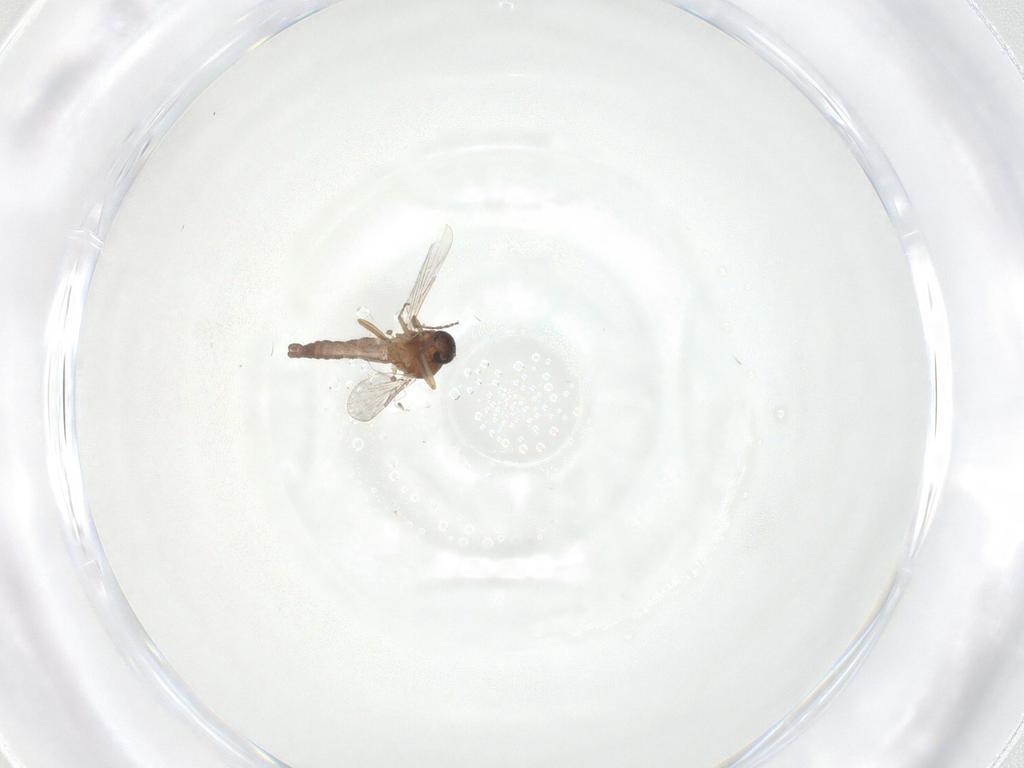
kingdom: Animalia
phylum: Arthropoda
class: Insecta
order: Diptera
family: Ceratopogonidae
